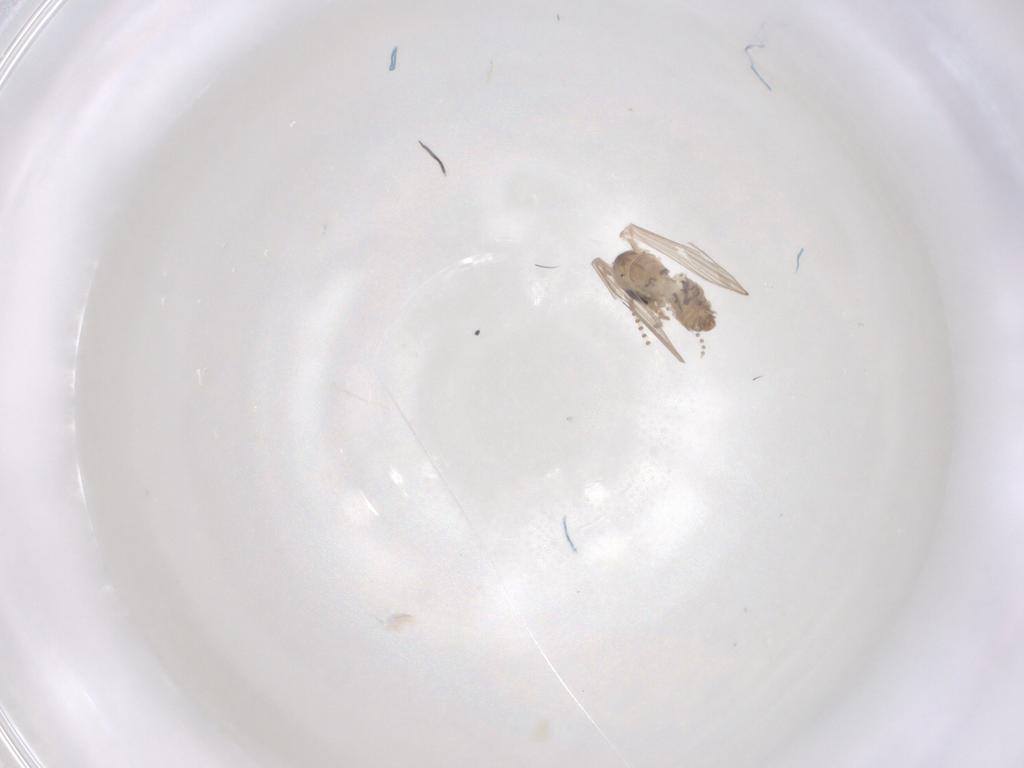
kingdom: Animalia
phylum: Arthropoda
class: Insecta
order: Diptera
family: Psychodidae
